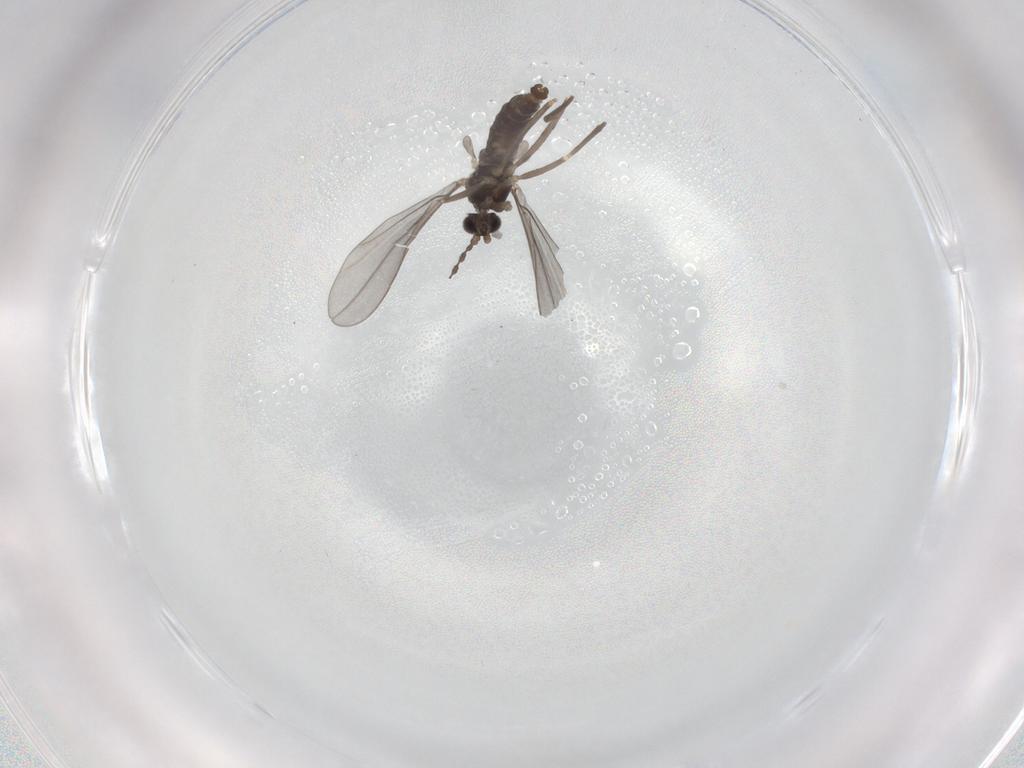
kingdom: Animalia
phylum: Arthropoda
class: Insecta
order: Diptera
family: Cecidomyiidae
